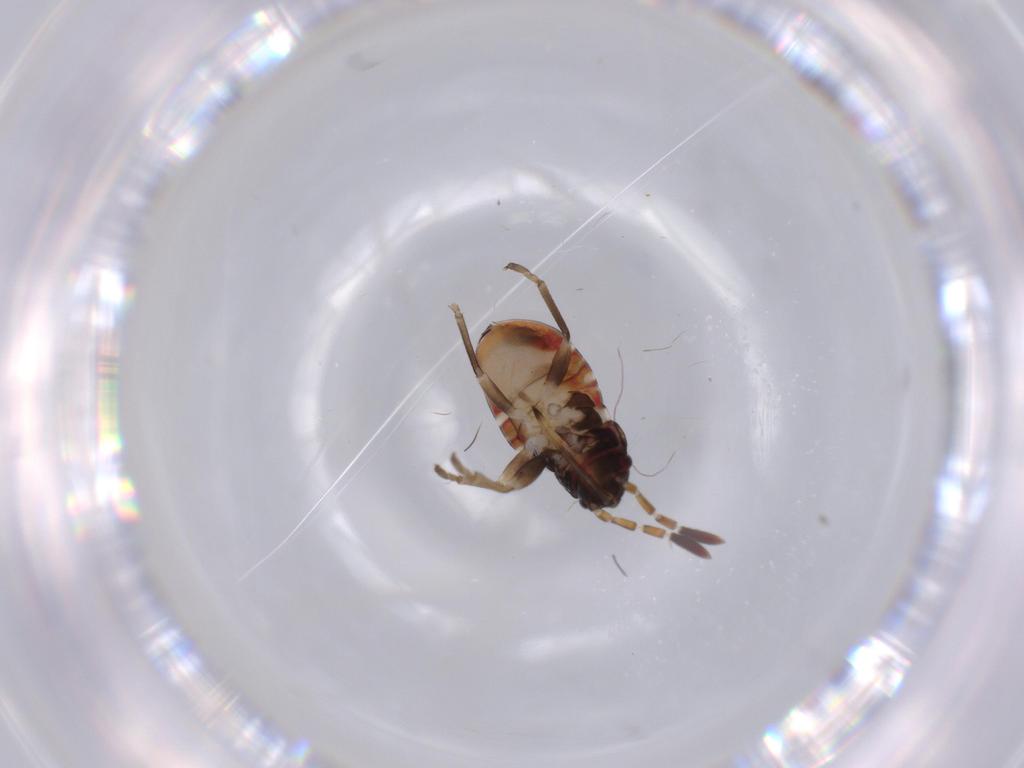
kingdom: Animalia
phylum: Arthropoda
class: Insecta
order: Hemiptera
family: Rhyparochromidae
